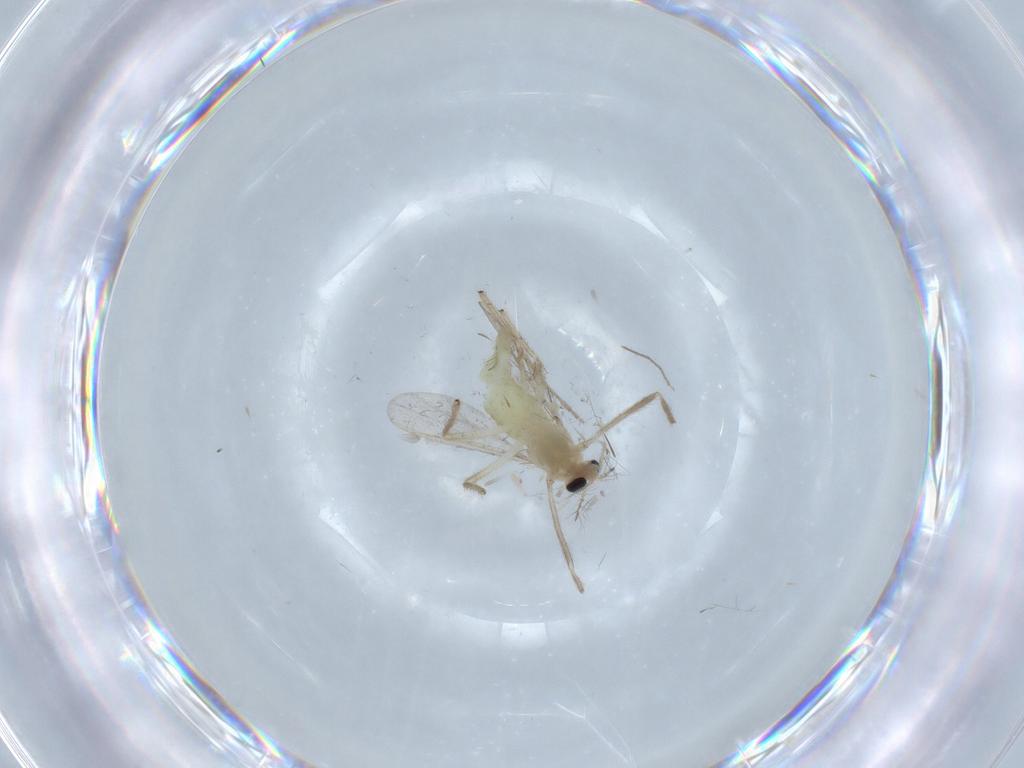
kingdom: Animalia
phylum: Arthropoda
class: Insecta
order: Diptera
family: Chironomidae
